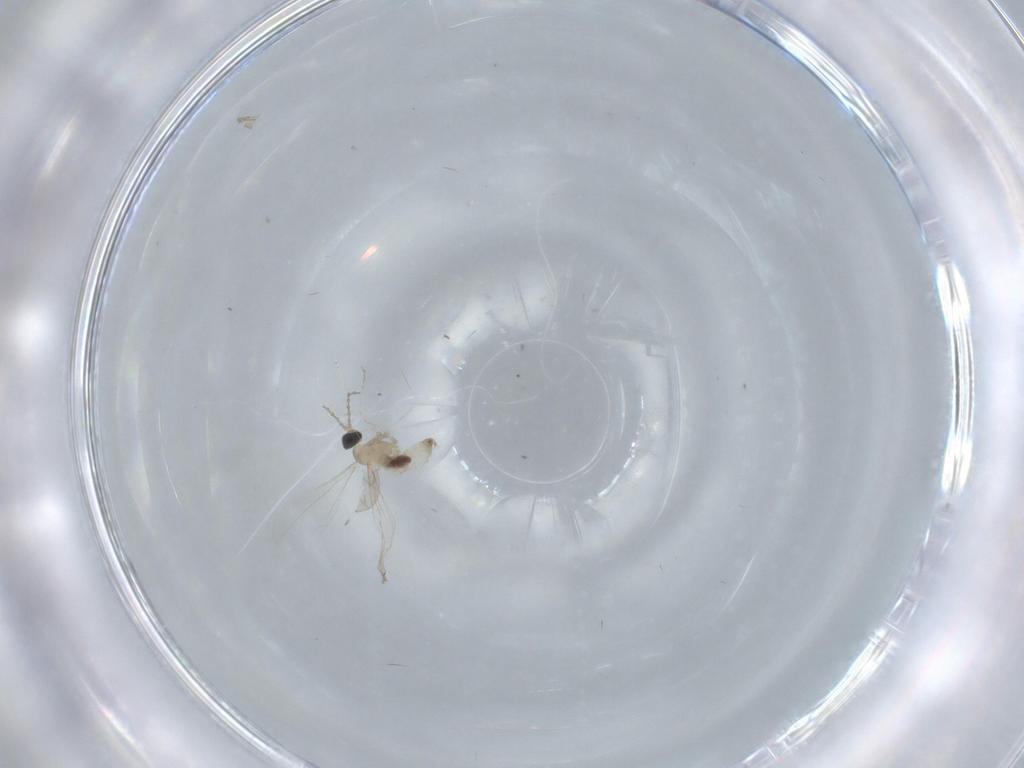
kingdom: Animalia
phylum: Arthropoda
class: Insecta
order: Diptera
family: Cecidomyiidae
